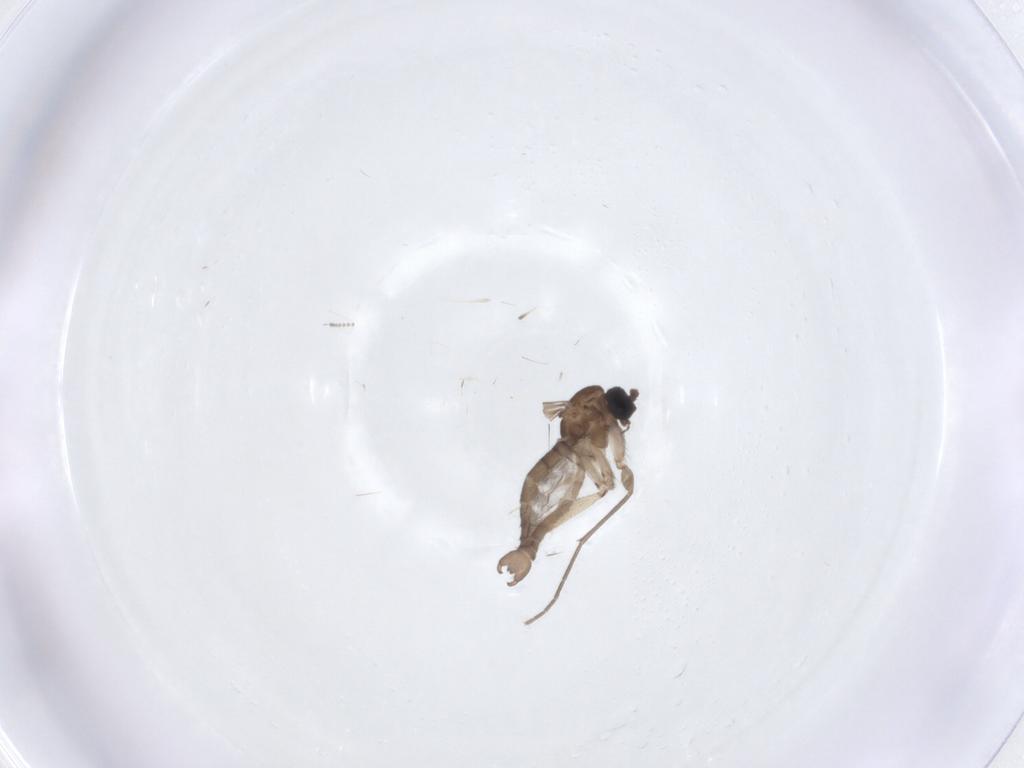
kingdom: Animalia
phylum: Arthropoda
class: Insecta
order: Diptera
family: Sciaridae
